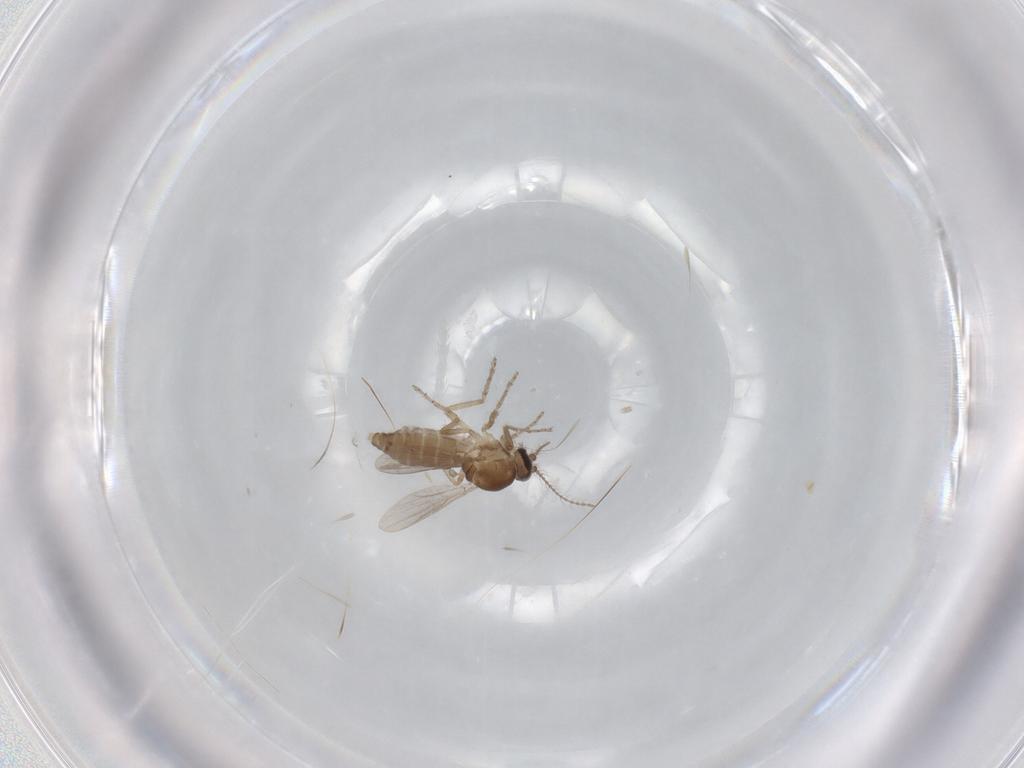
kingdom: Animalia
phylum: Arthropoda
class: Insecta
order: Diptera
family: Ceratopogonidae
